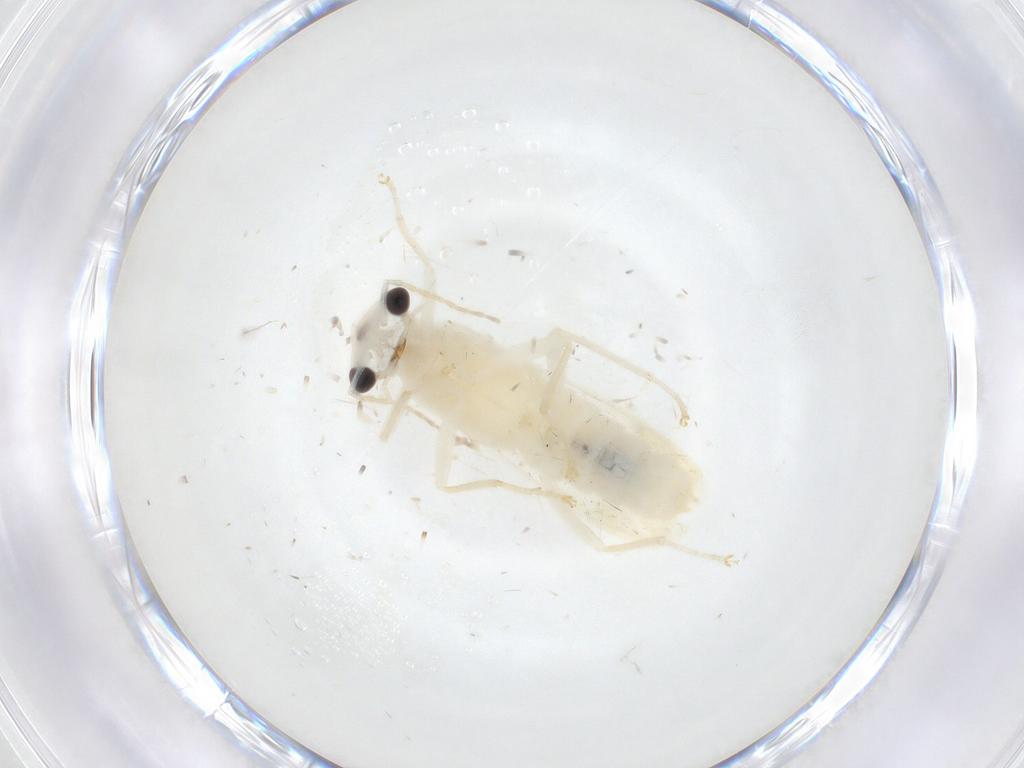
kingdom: Animalia
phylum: Arthropoda
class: Insecta
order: Coleoptera
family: Cantharidae
